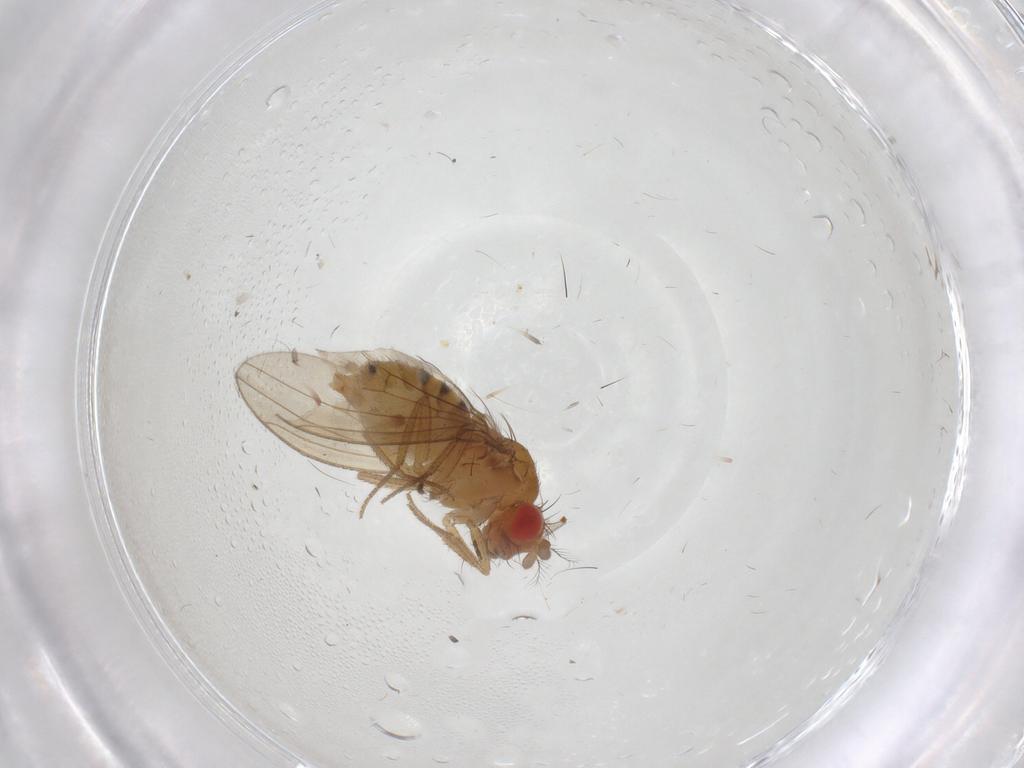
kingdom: Animalia
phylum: Arthropoda
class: Insecta
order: Diptera
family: Drosophilidae
